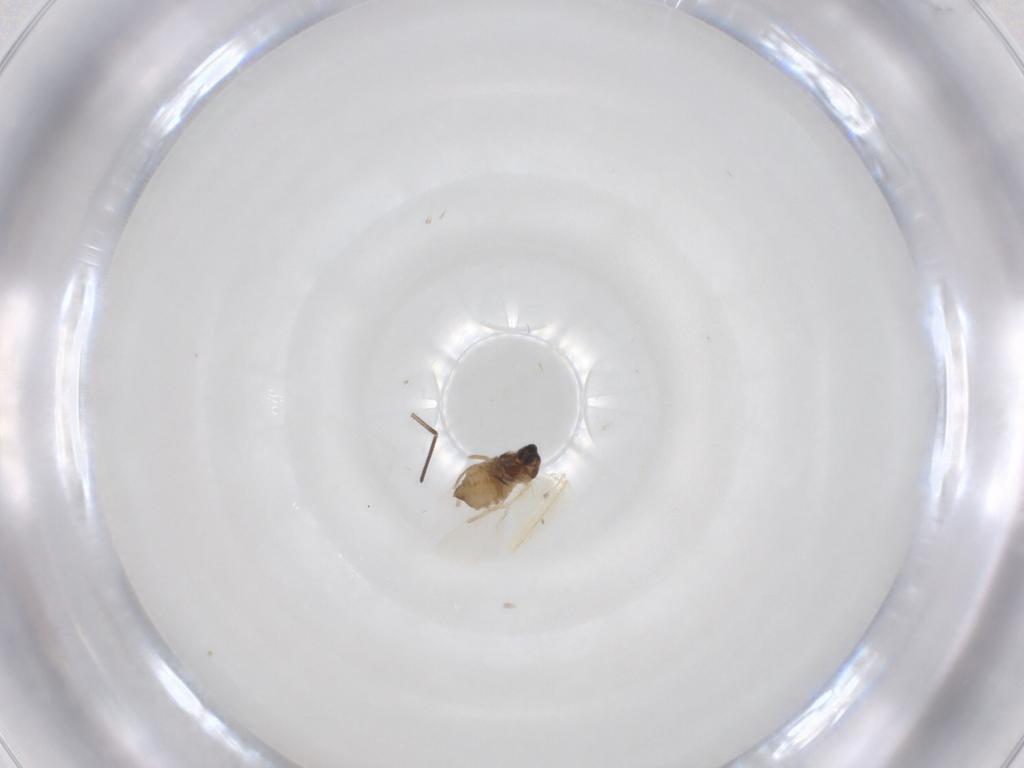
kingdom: Animalia
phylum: Arthropoda
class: Insecta
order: Diptera
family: Cecidomyiidae
